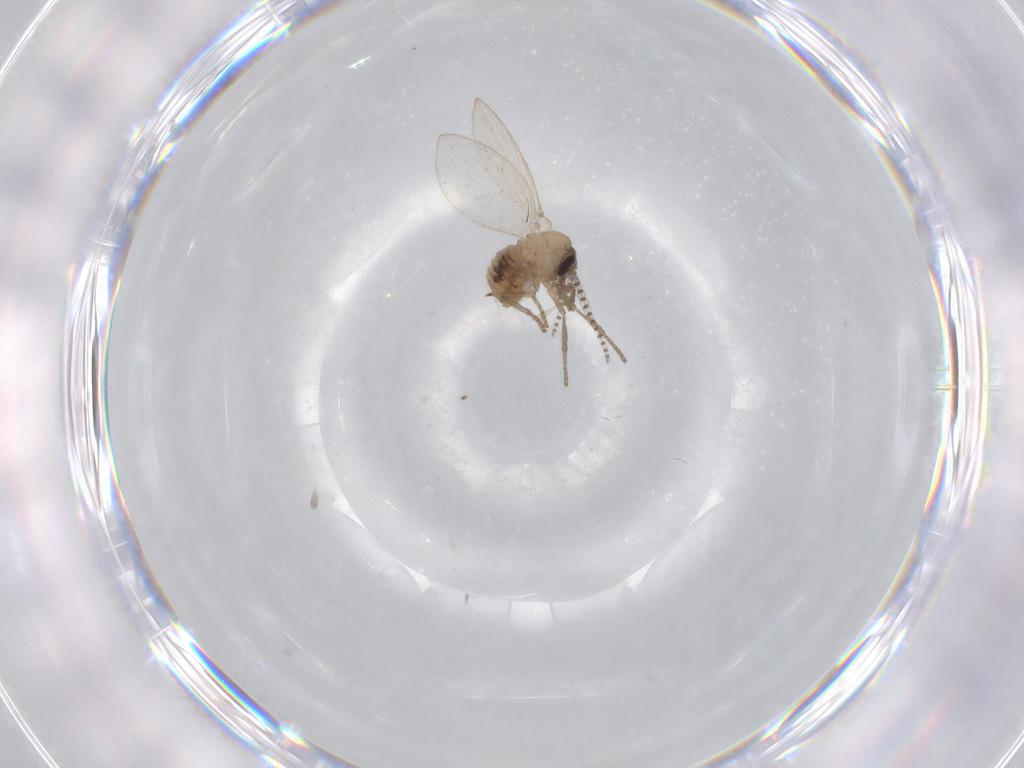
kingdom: Animalia
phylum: Arthropoda
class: Insecta
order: Diptera
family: Psychodidae
